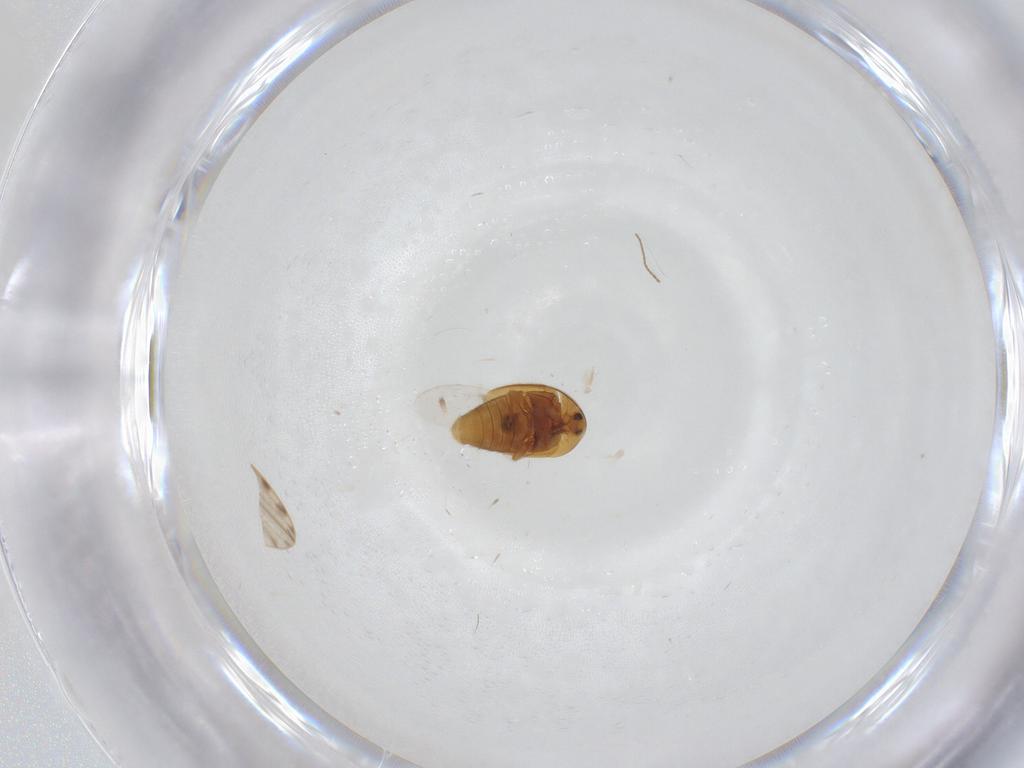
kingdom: Animalia
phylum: Arthropoda
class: Insecta
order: Coleoptera
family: Corylophidae
